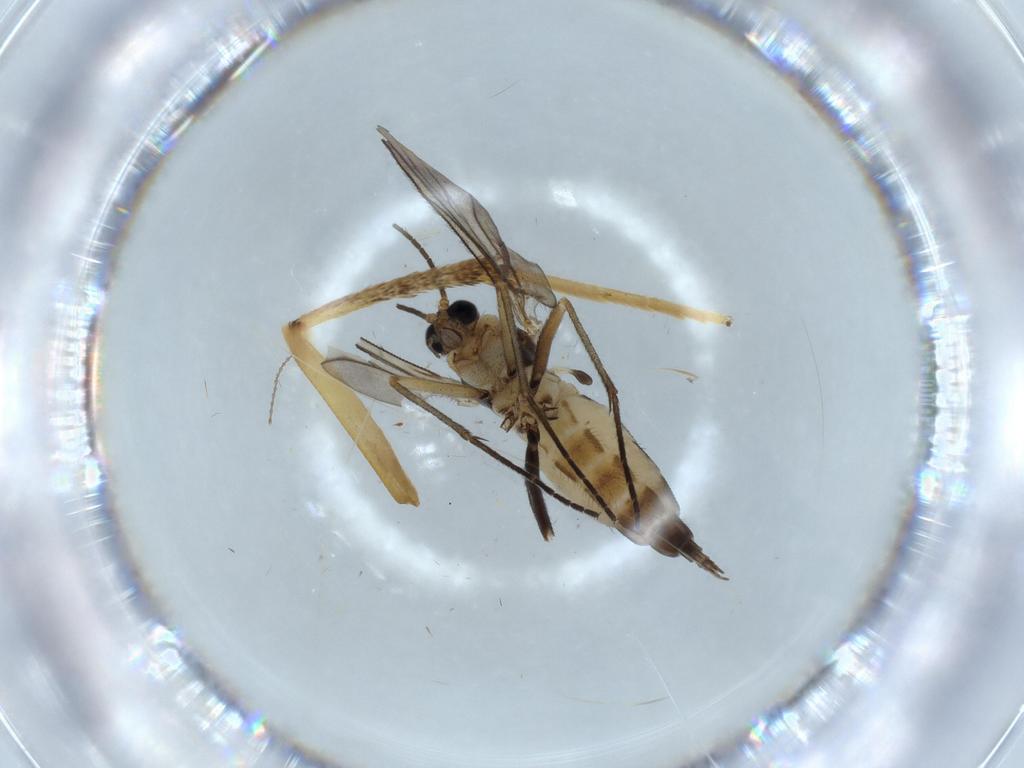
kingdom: Animalia
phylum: Arthropoda
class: Insecta
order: Diptera
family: Sciaridae
